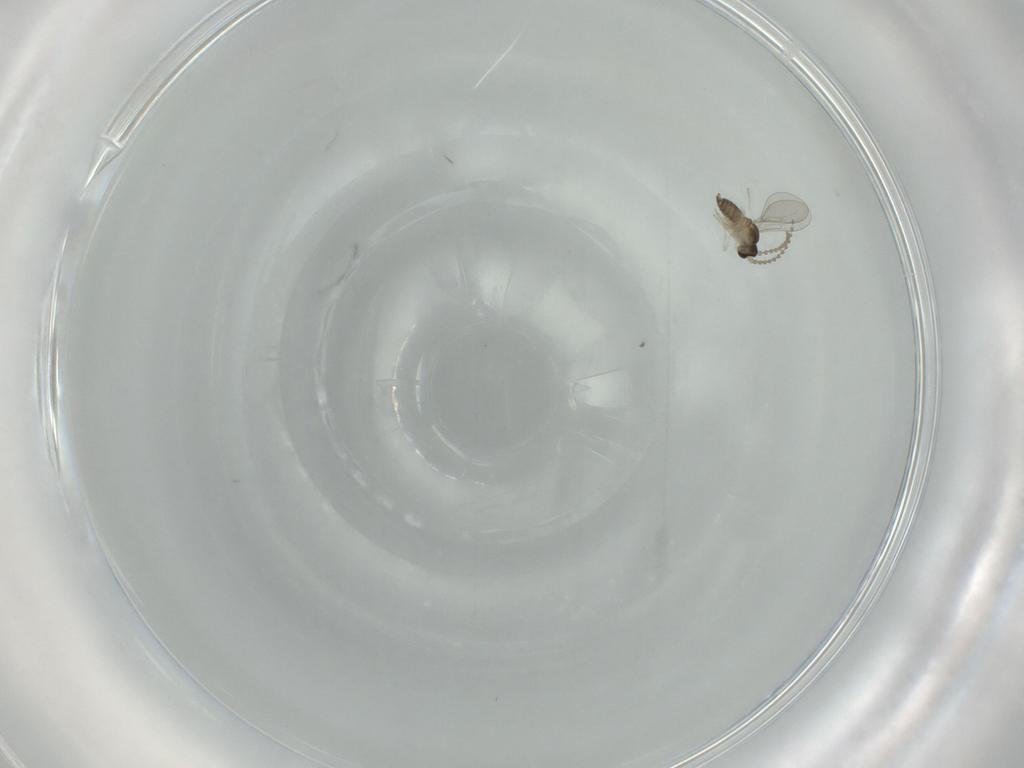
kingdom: Animalia
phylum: Arthropoda
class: Insecta
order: Diptera
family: Cecidomyiidae
